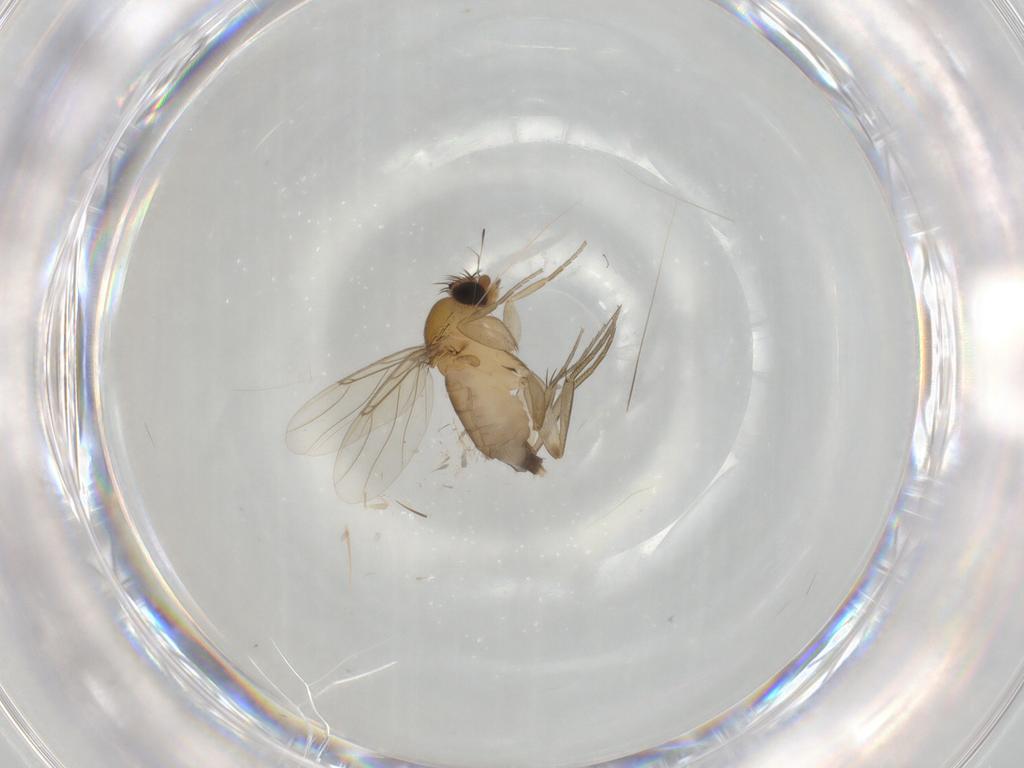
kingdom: Animalia
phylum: Arthropoda
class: Insecta
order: Diptera
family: Phoridae
